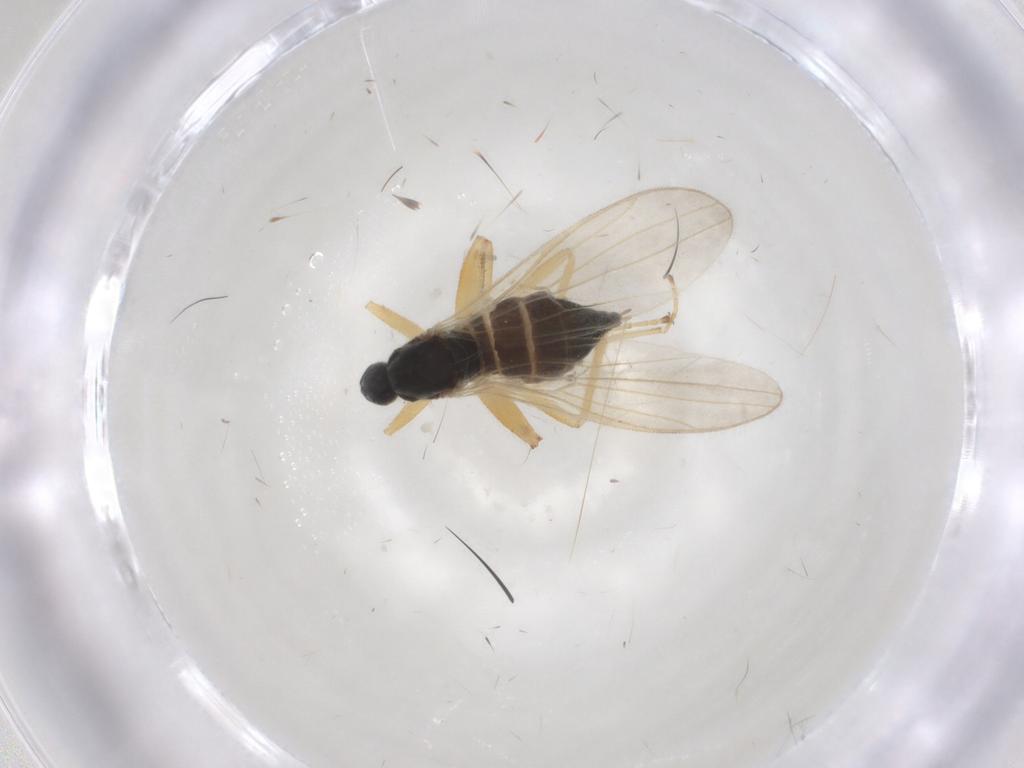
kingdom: Animalia
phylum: Arthropoda
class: Insecta
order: Diptera
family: Hybotidae
